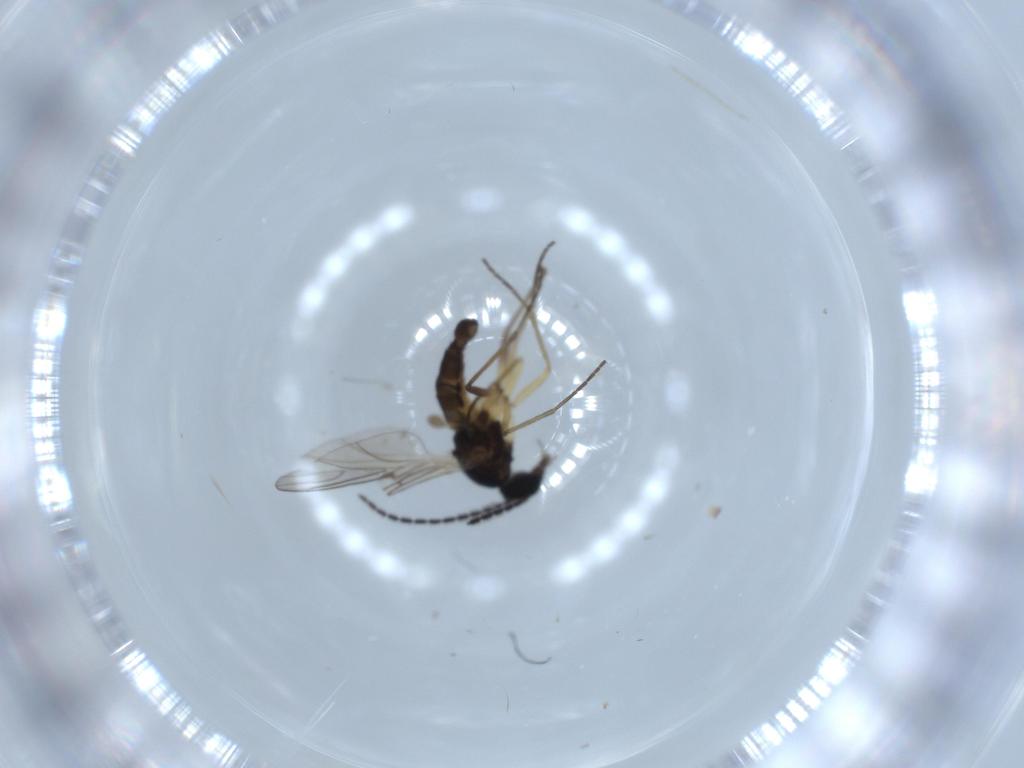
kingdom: Animalia
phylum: Arthropoda
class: Insecta
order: Diptera
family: Sciaridae
